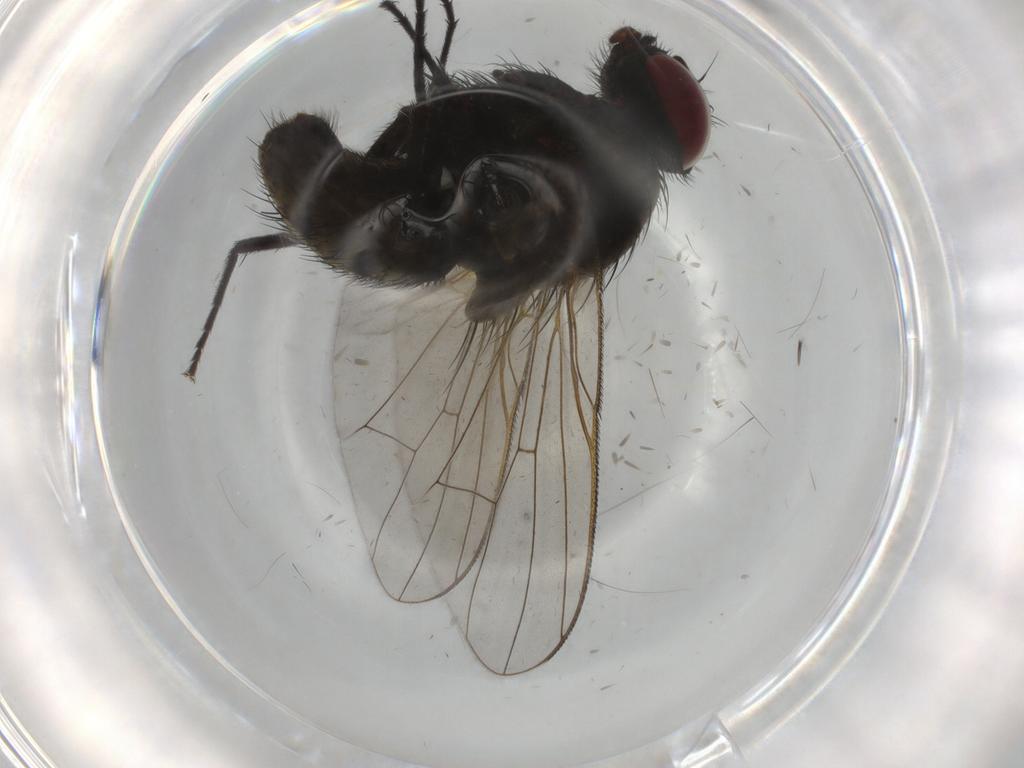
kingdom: Animalia
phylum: Arthropoda
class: Insecta
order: Diptera
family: Muscidae
